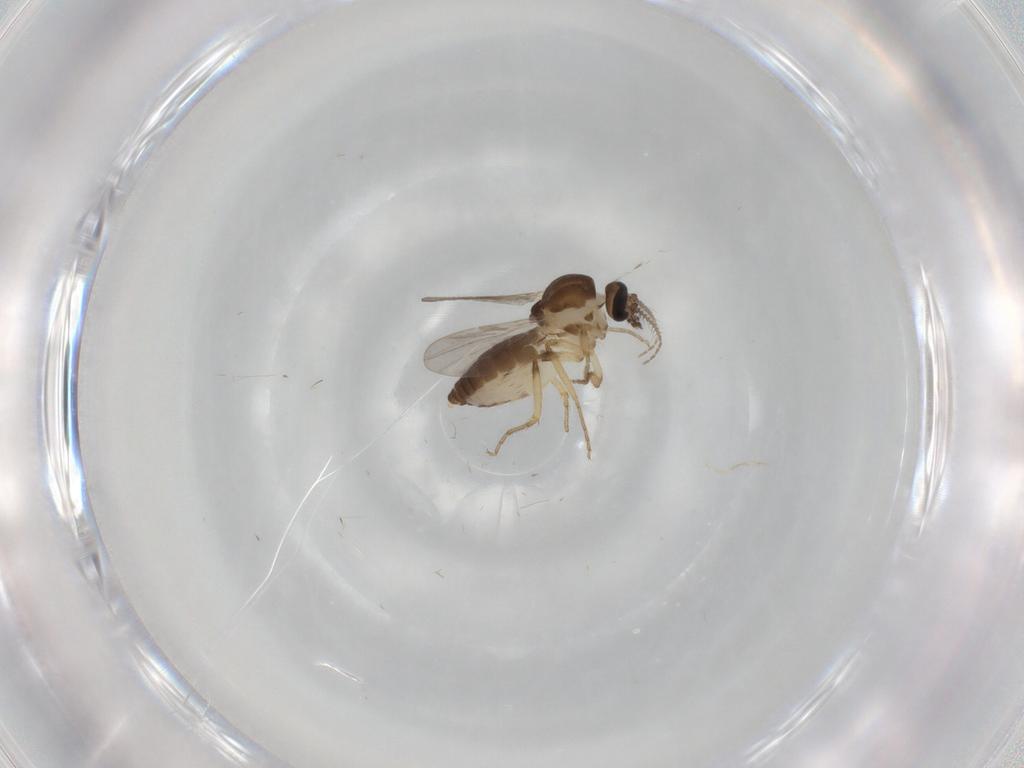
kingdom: Animalia
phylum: Arthropoda
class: Insecta
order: Diptera
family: Ceratopogonidae
